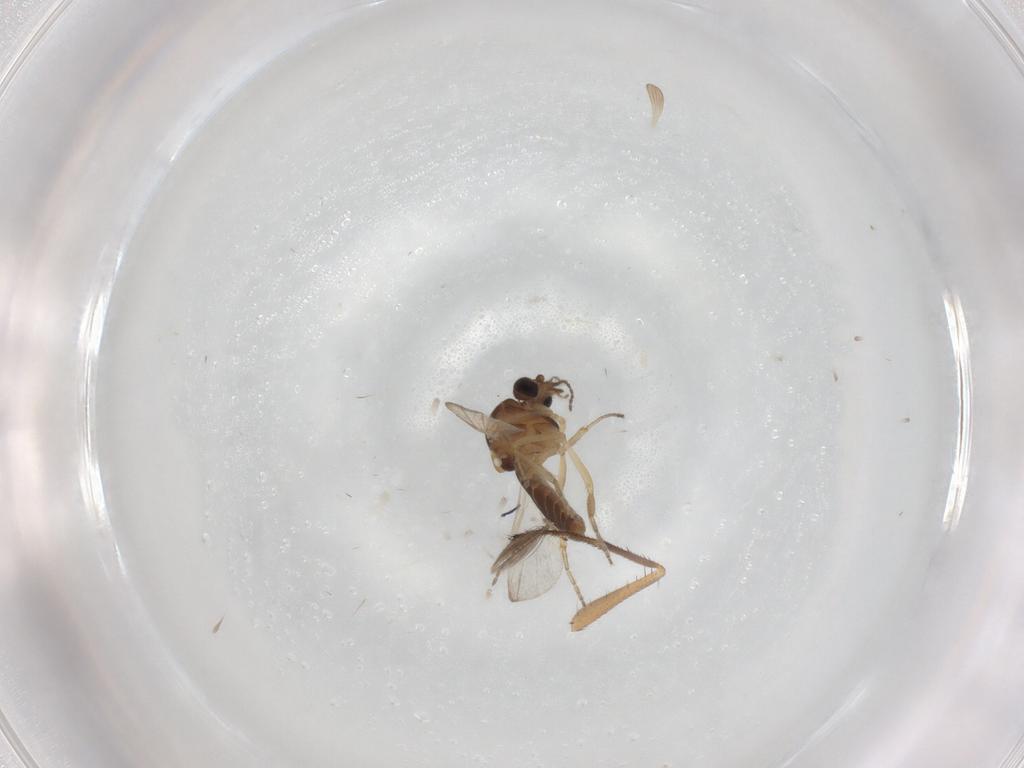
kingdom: Animalia
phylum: Arthropoda
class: Insecta
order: Diptera
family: Ceratopogonidae
